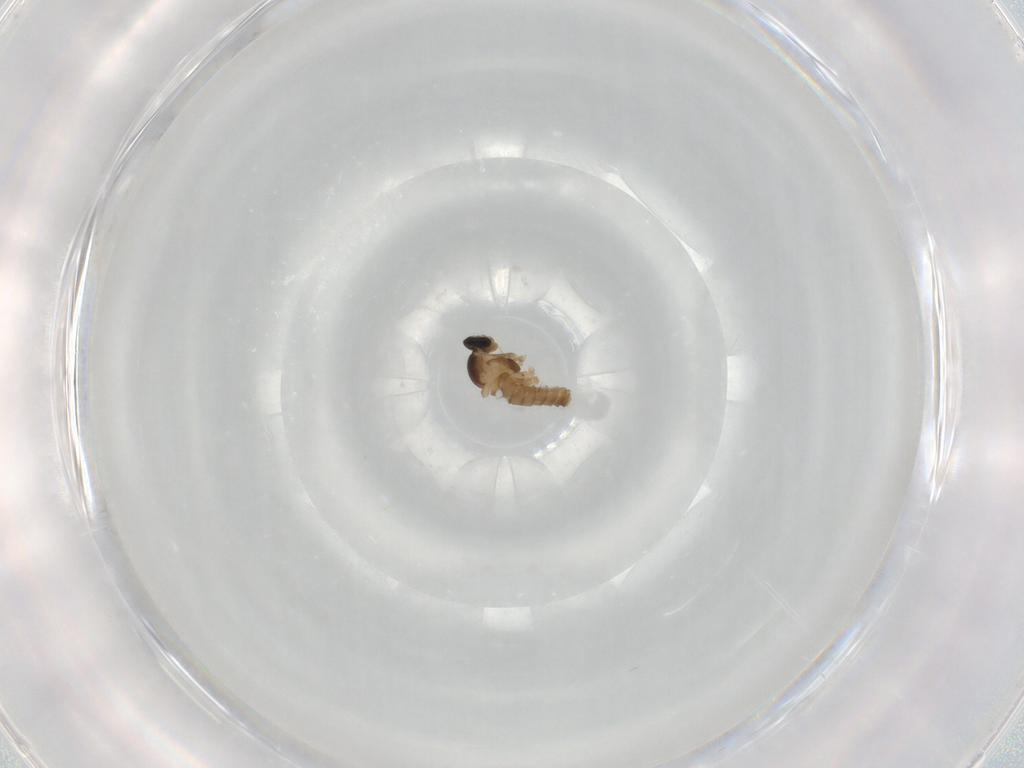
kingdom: Animalia
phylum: Arthropoda
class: Insecta
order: Diptera
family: Cecidomyiidae
